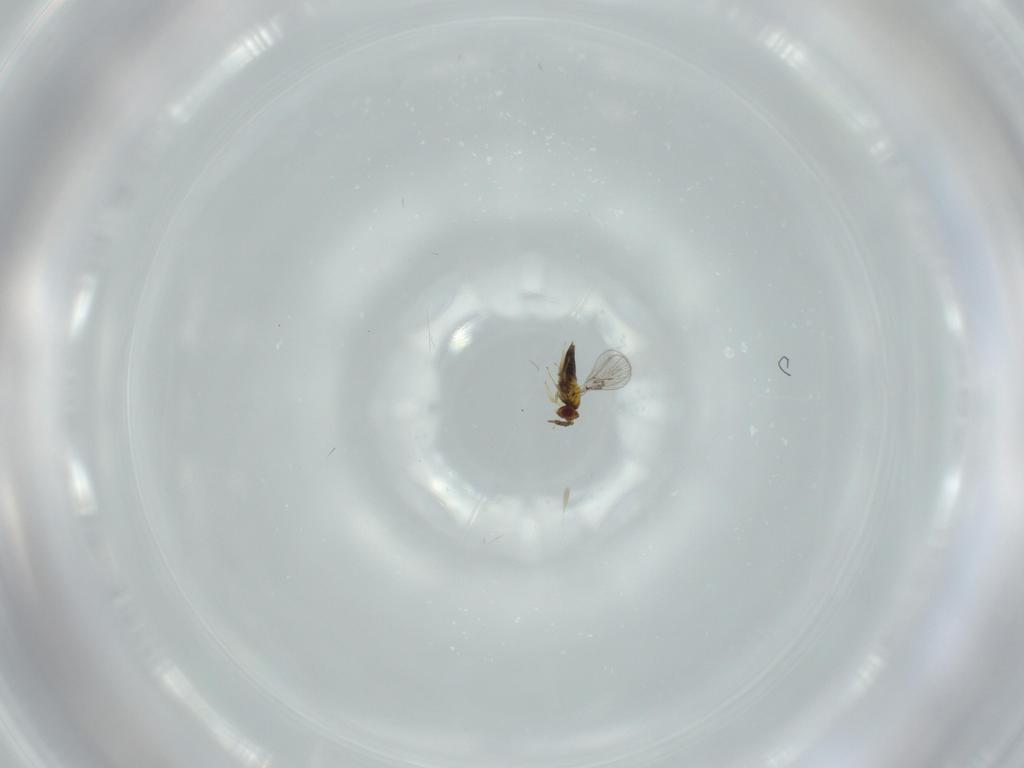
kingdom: Animalia
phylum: Arthropoda
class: Insecta
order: Hymenoptera
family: Trichogrammatidae
